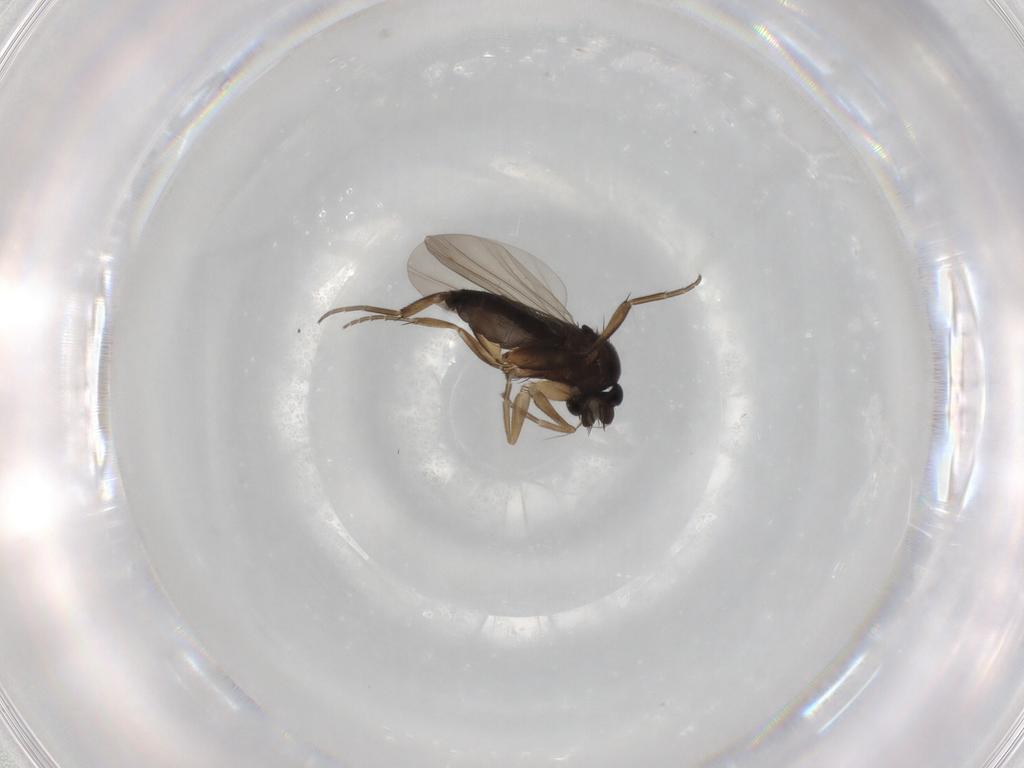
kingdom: Animalia
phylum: Arthropoda
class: Insecta
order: Diptera
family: Phoridae
